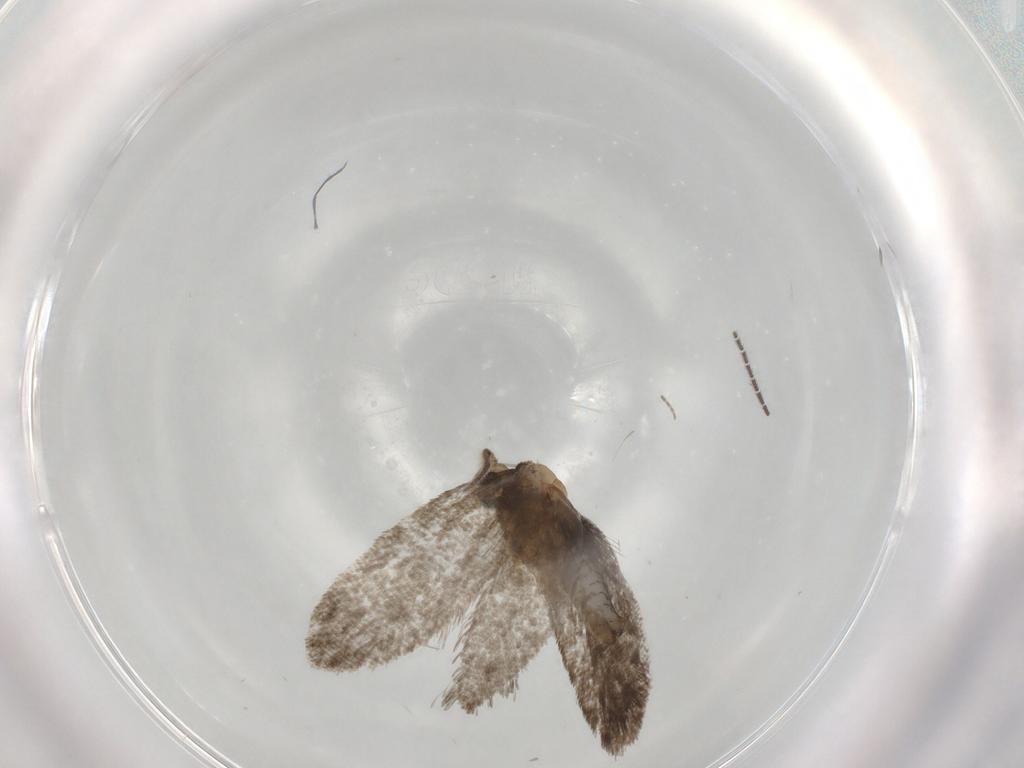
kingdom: Animalia
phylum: Arthropoda
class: Insecta
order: Lepidoptera
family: Psychidae
